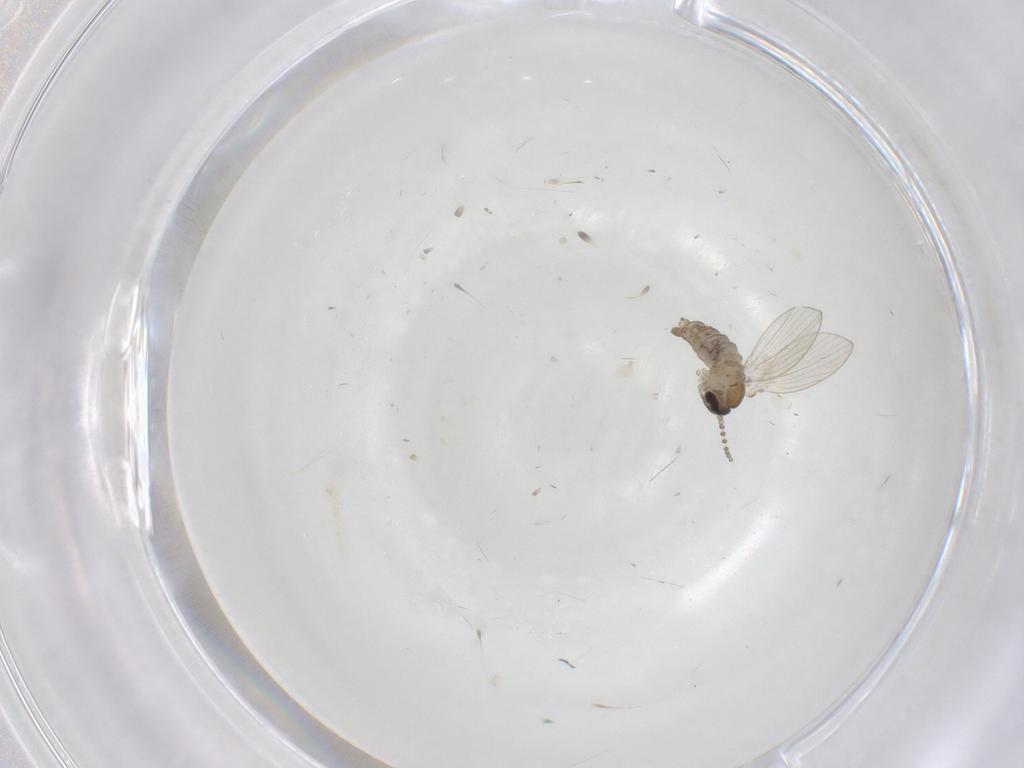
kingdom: Animalia
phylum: Arthropoda
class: Insecta
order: Diptera
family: Psychodidae
